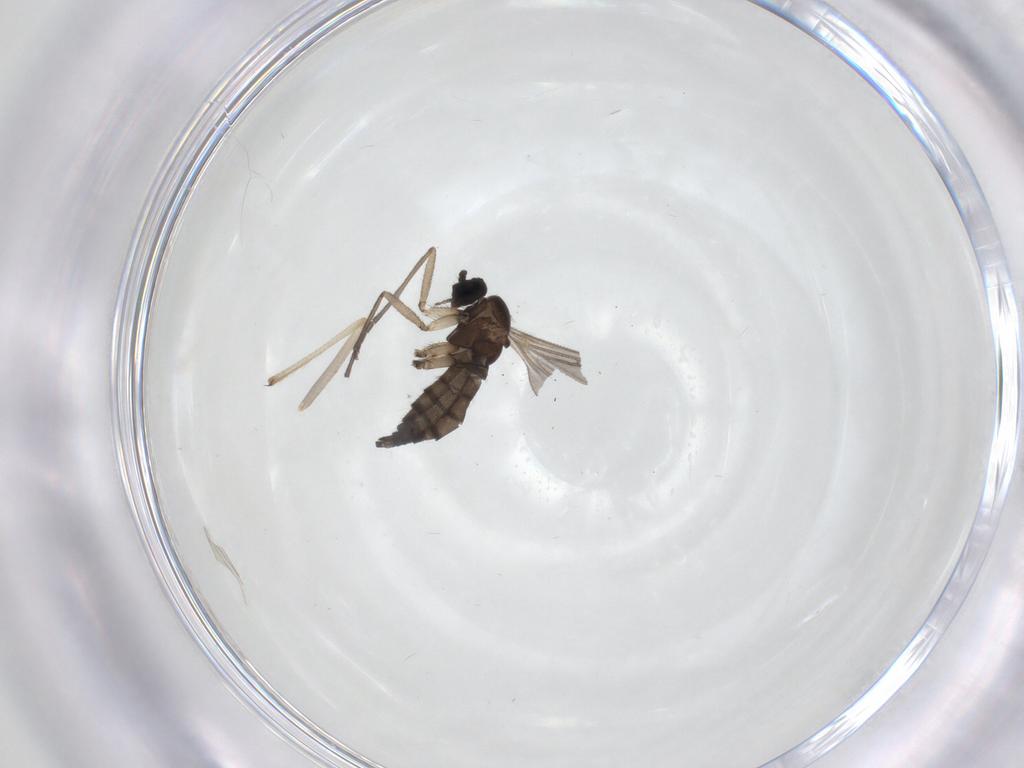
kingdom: Animalia
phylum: Arthropoda
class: Insecta
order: Diptera
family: Sciaridae
